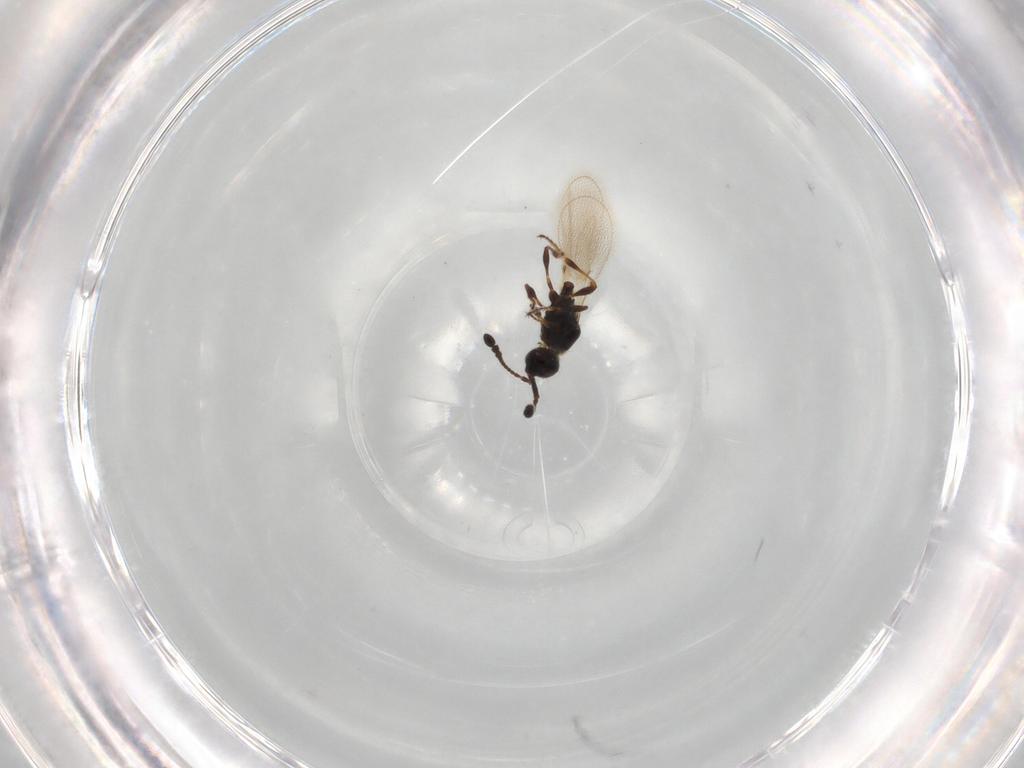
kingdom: Animalia
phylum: Arthropoda
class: Insecta
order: Hymenoptera
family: Diapriidae
